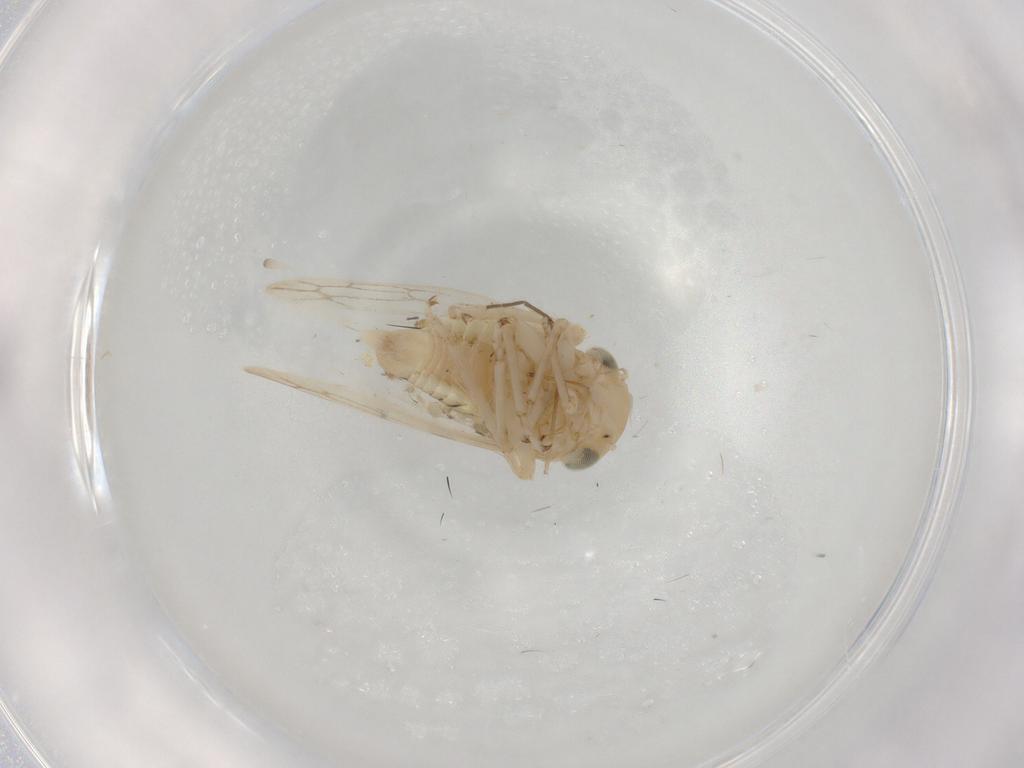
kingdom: Animalia
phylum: Arthropoda
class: Insecta
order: Hemiptera
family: Cicadellidae
